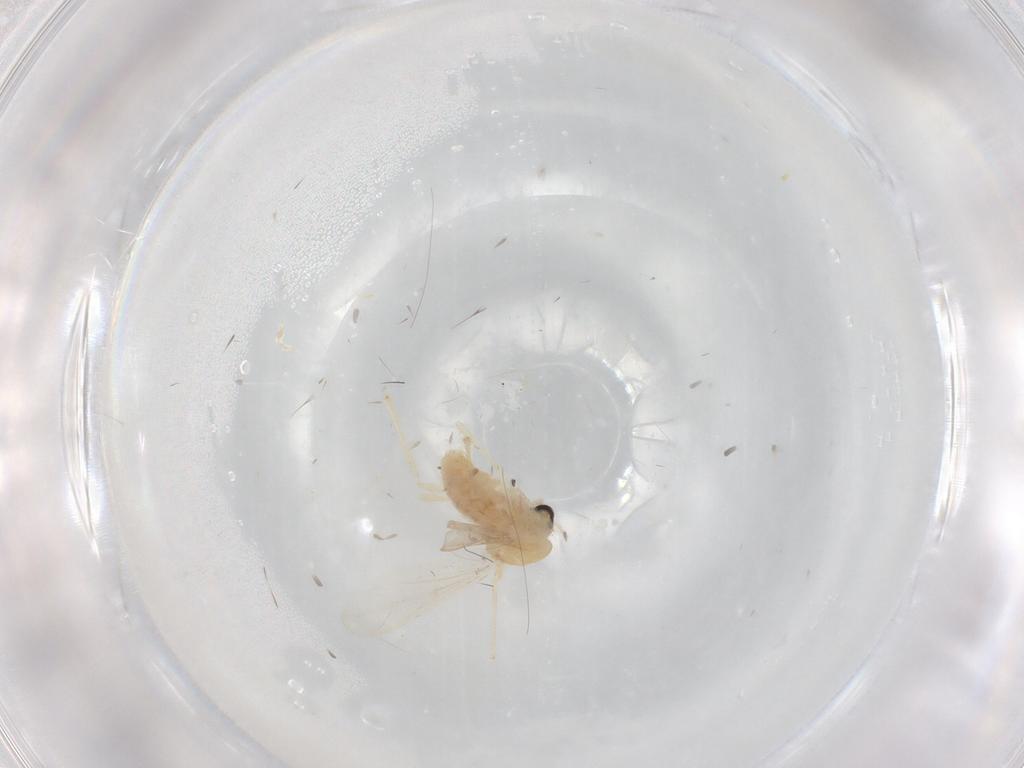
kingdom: Animalia
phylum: Arthropoda
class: Insecta
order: Diptera
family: Chironomidae
